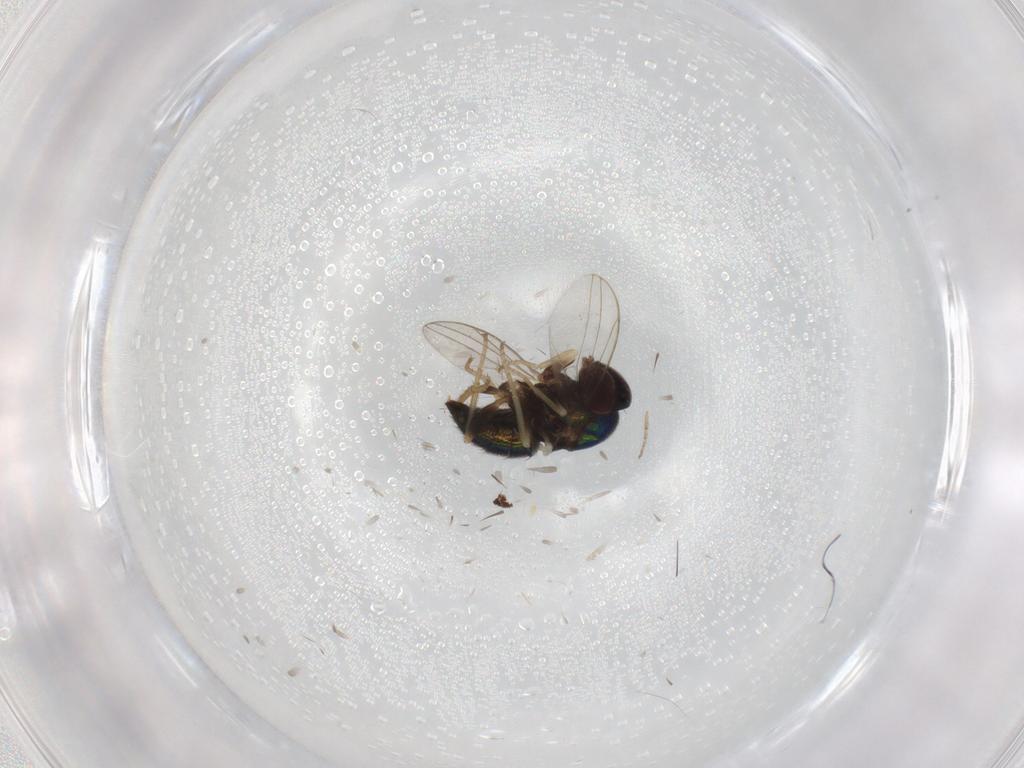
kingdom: Animalia
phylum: Arthropoda
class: Insecta
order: Diptera
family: Dolichopodidae
